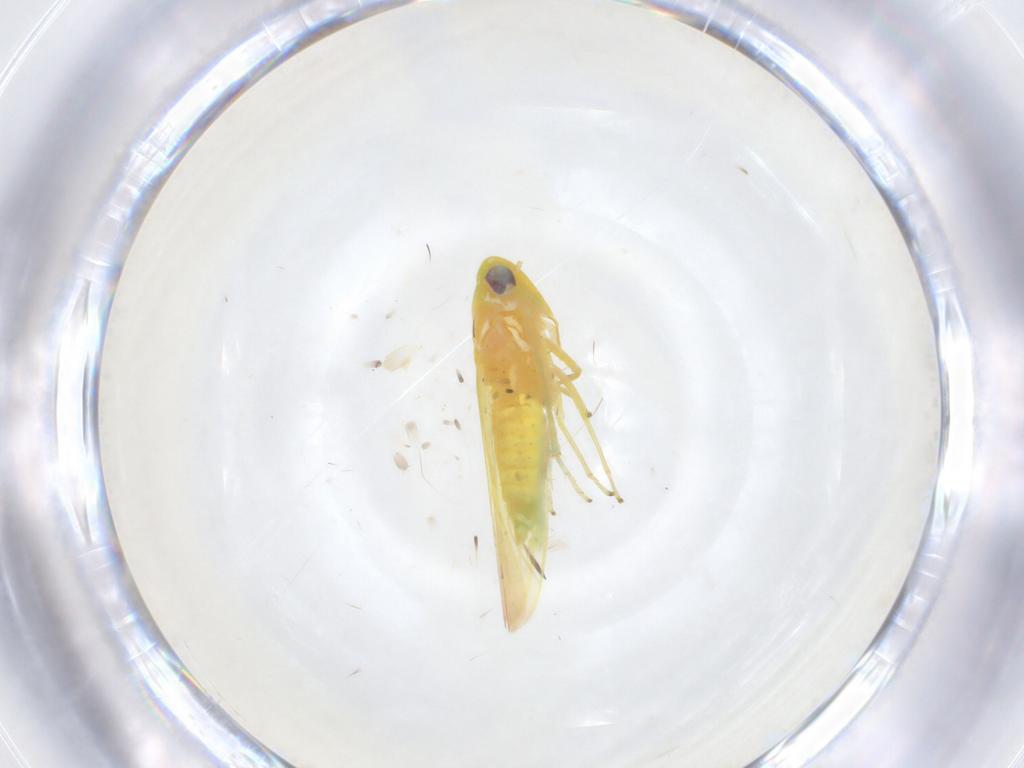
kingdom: Animalia
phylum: Arthropoda
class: Insecta
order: Hemiptera
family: Cicadellidae
